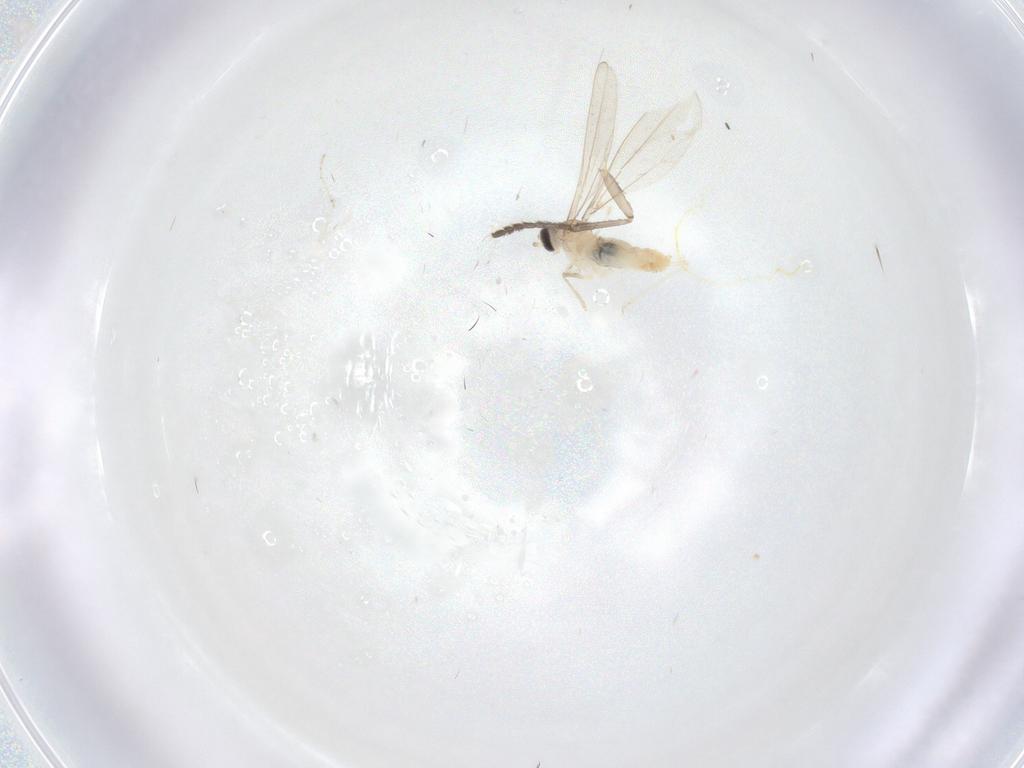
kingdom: Animalia
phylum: Arthropoda
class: Insecta
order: Diptera
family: Cecidomyiidae
